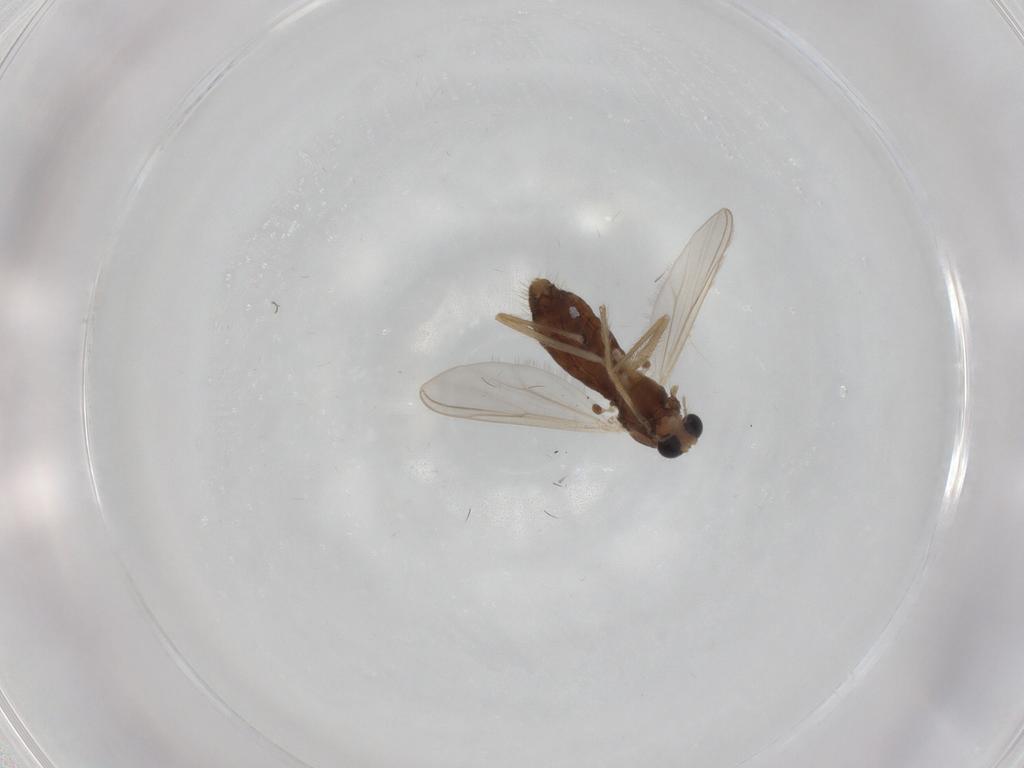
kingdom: Animalia
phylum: Arthropoda
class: Insecta
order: Diptera
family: Chironomidae
